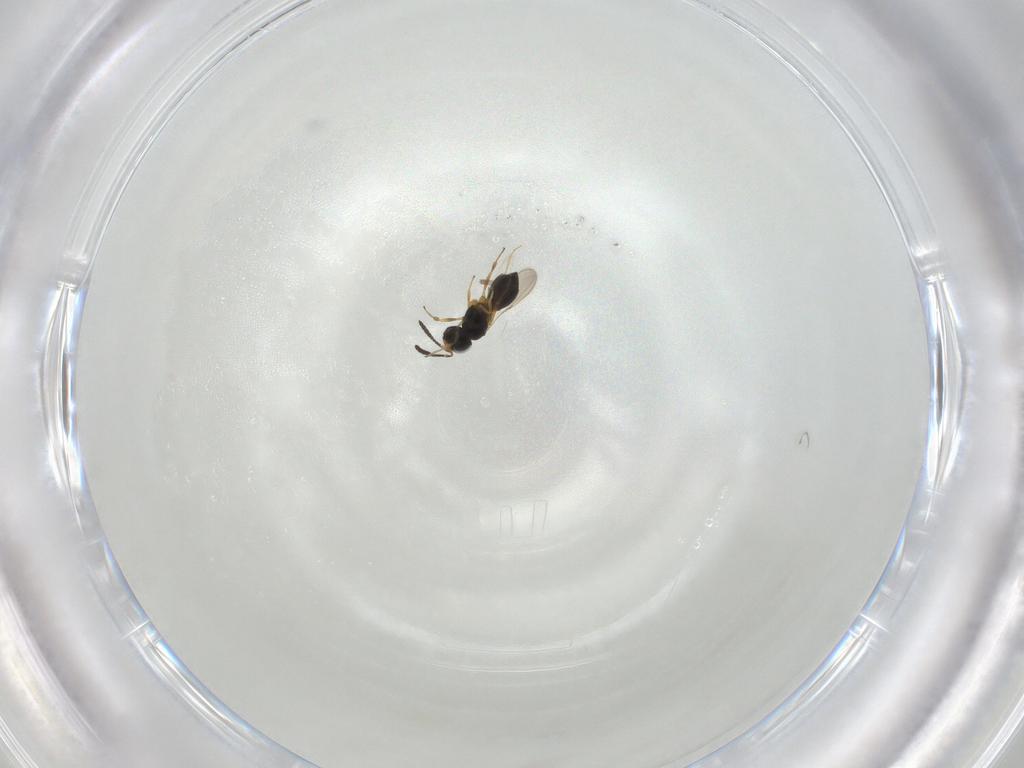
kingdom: Animalia
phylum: Arthropoda
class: Insecta
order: Hymenoptera
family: Scelionidae
